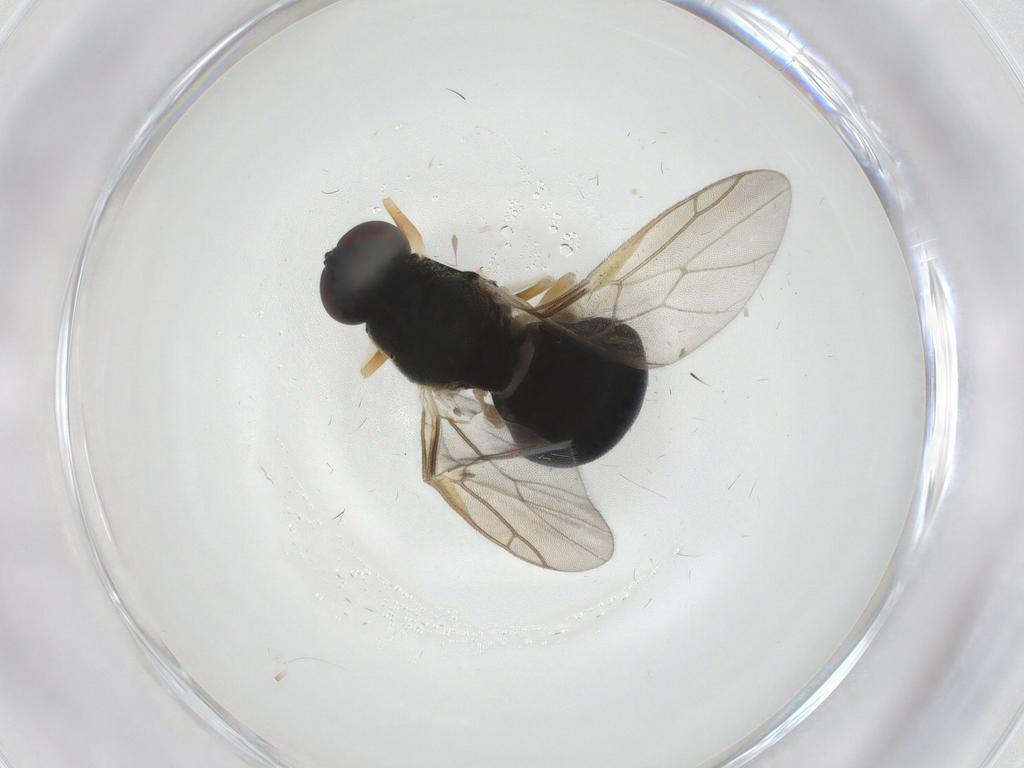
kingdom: Animalia
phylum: Arthropoda
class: Insecta
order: Diptera
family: Stratiomyidae
